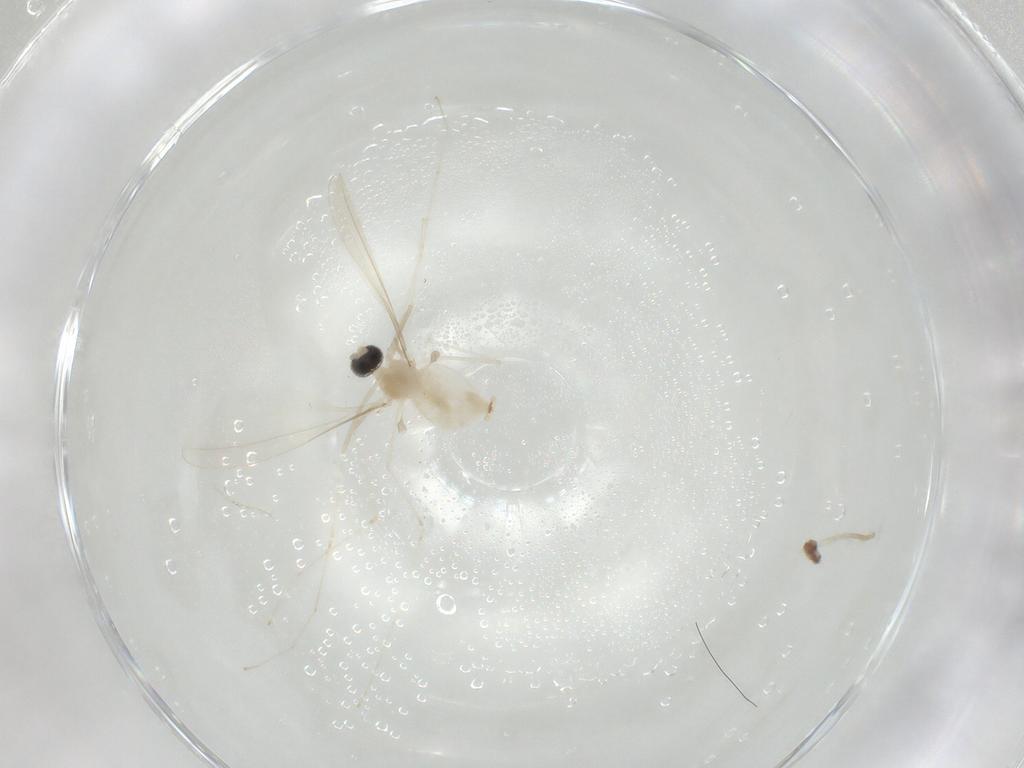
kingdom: Animalia
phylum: Arthropoda
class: Insecta
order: Diptera
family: Cecidomyiidae
